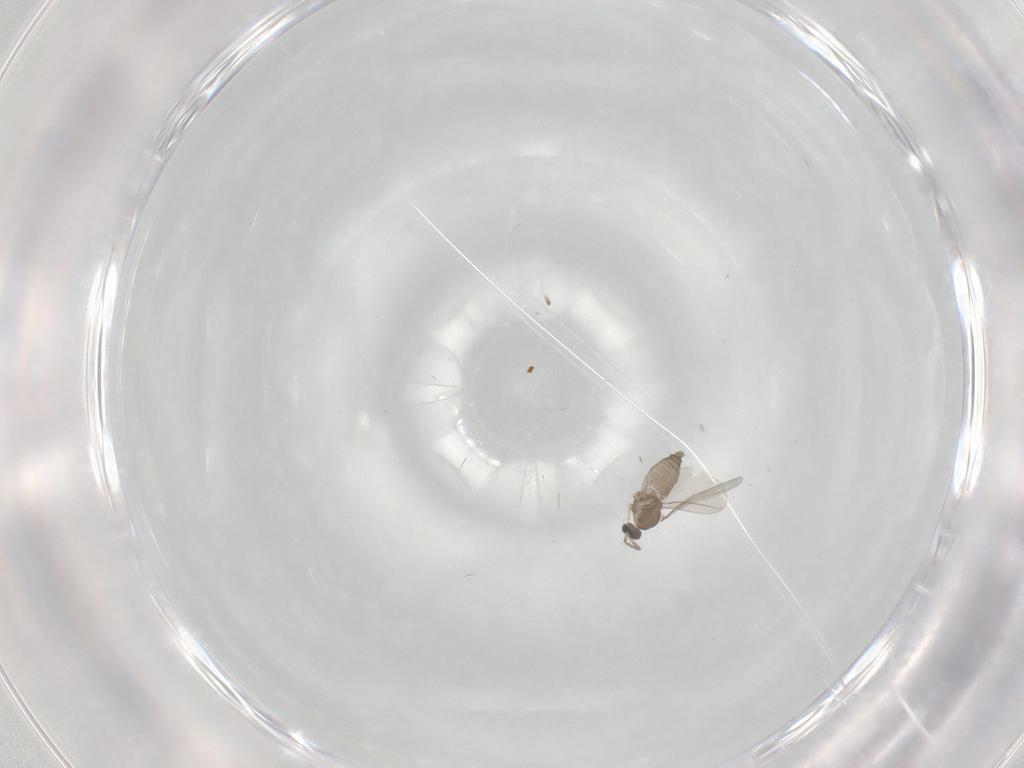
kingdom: Animalia
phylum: Arthropoda
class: Insecta
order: Diptera
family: Cecidomyiidae
